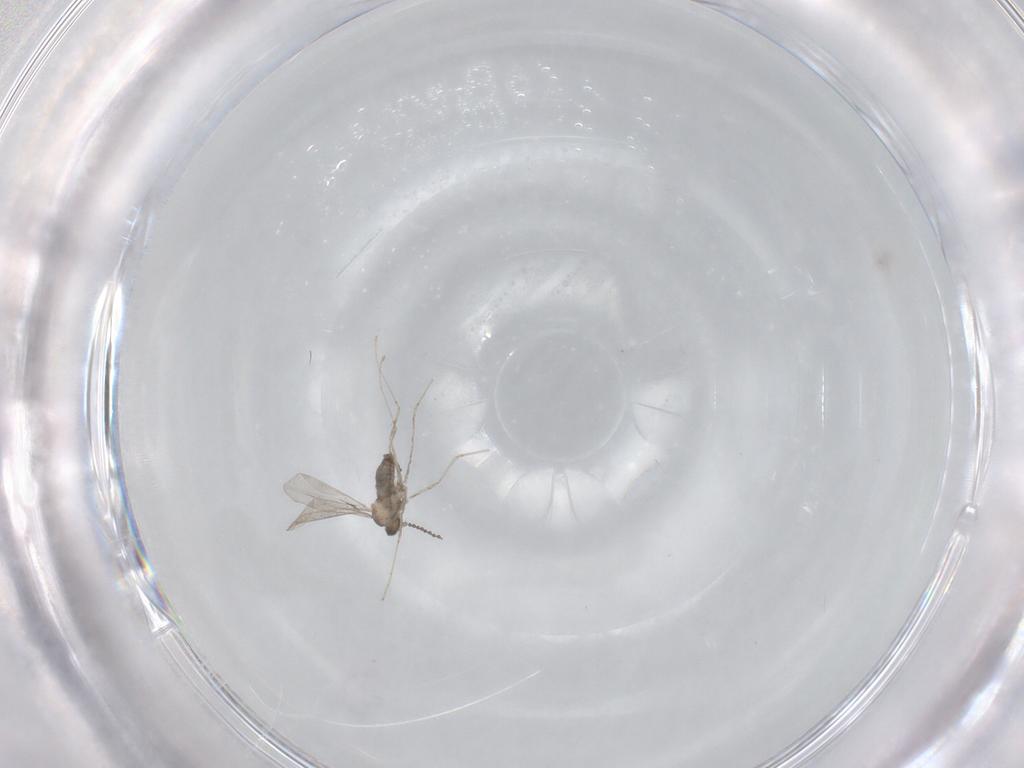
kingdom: Animalia
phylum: Arthropoda
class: Insecta
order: Diptera
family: Cecidomyiidae
